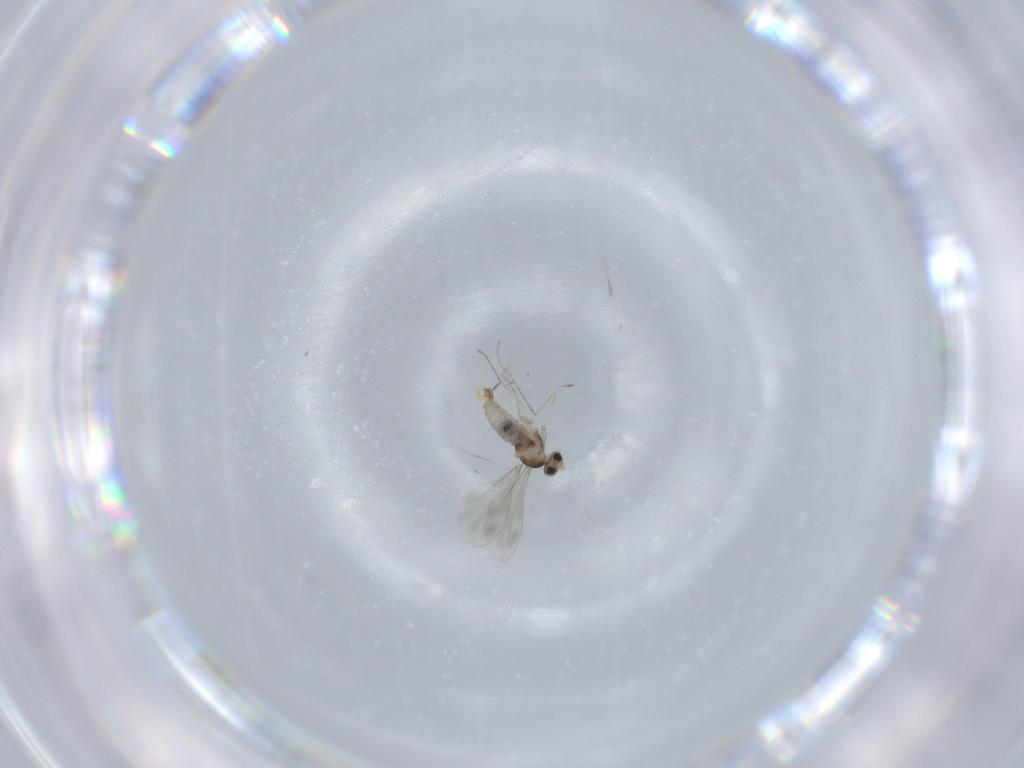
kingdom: Animalia
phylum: Arthropoda
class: Insecta
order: Diptera
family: Cecidomyiidae
